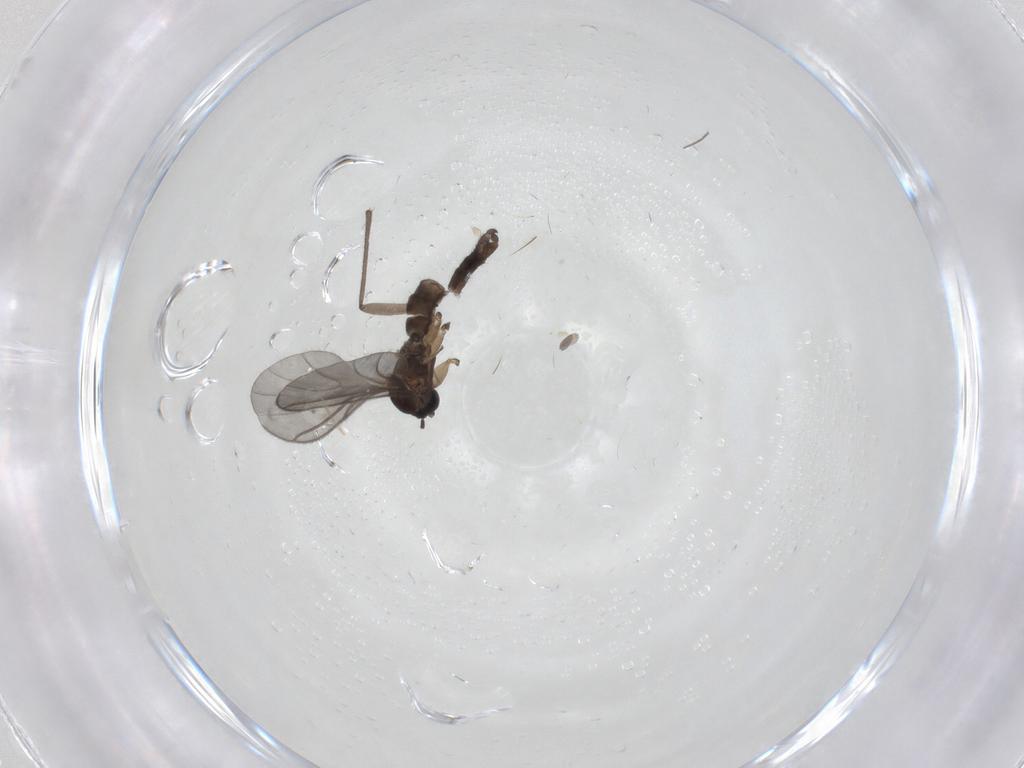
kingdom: Animalia
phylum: Arthropoda
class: Insecta
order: Diptera
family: Sciaridae
